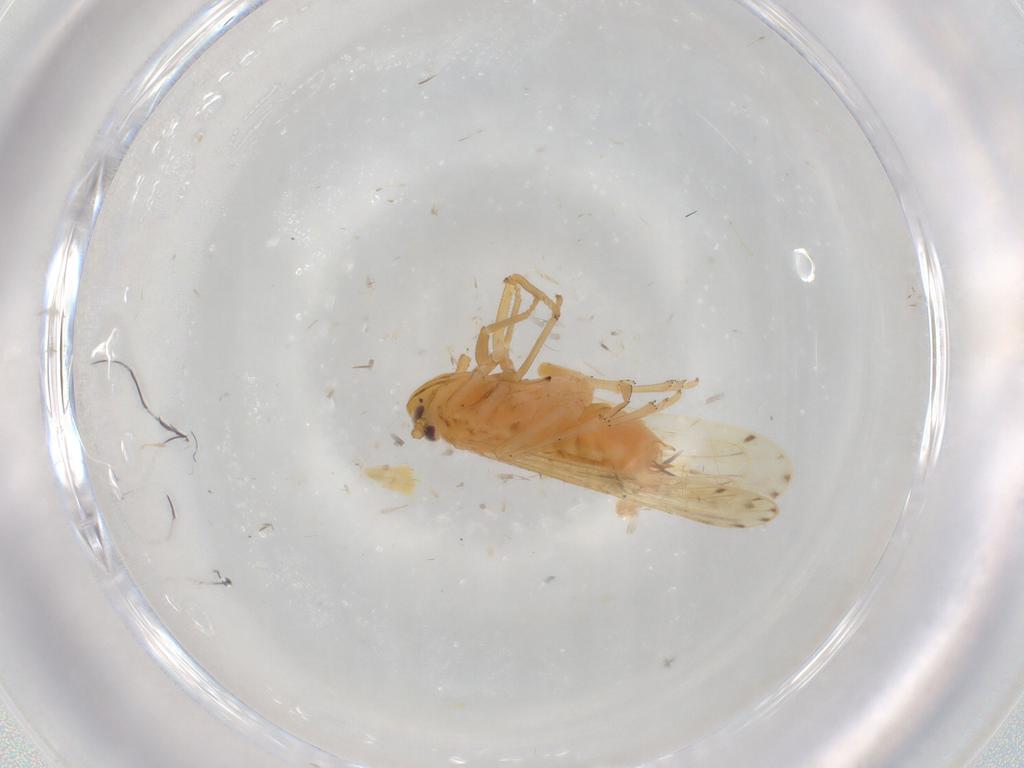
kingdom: Animalia
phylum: Arthropoda
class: Insecta
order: Hemiptera
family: Delphacidae
